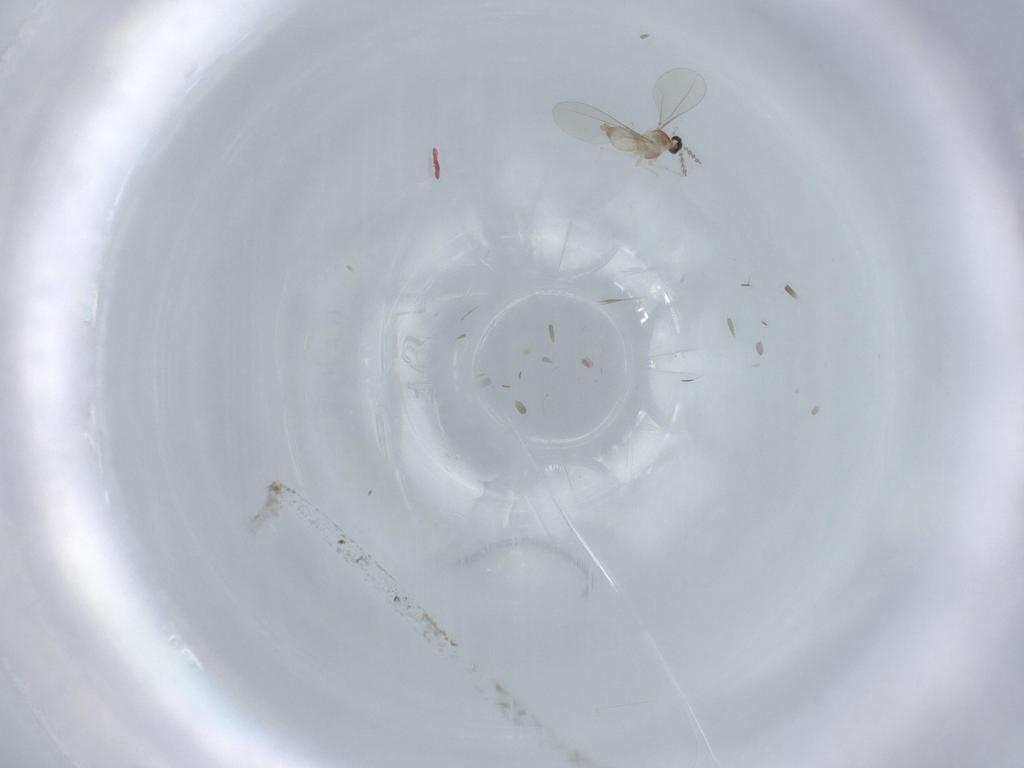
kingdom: Animalia
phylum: Arthropoda
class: Insecta
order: Diptera
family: Cecidomyiidae
